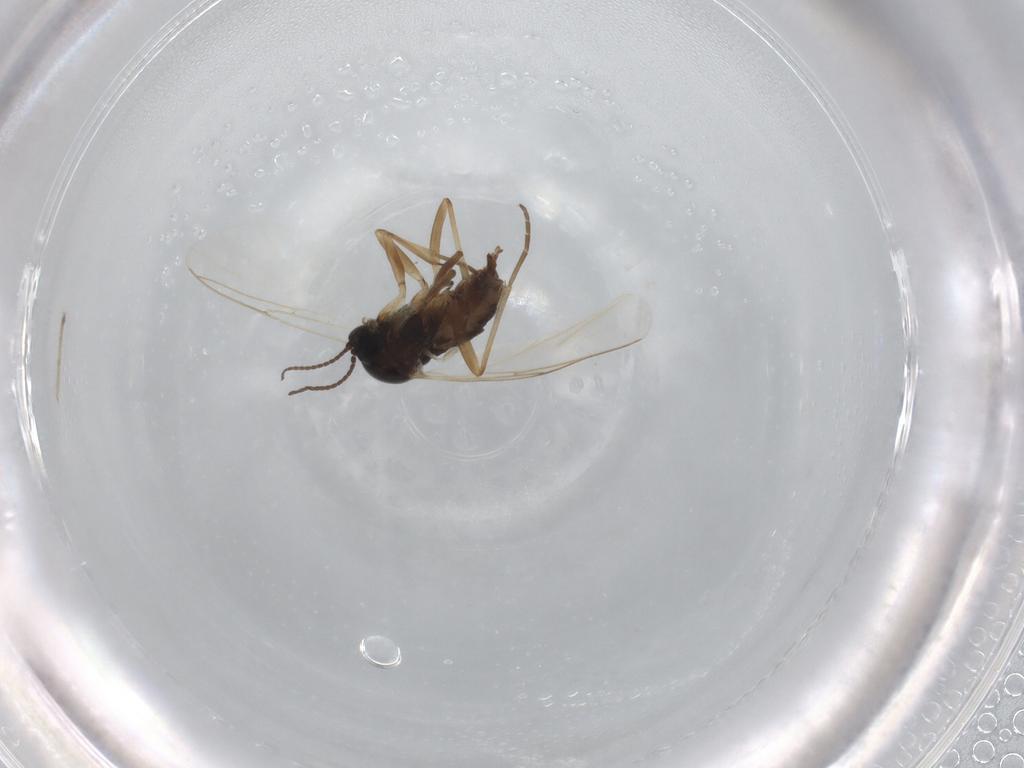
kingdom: Animalia
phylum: Arthropoda
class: Insecta
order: Diptera
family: Sciaridae
